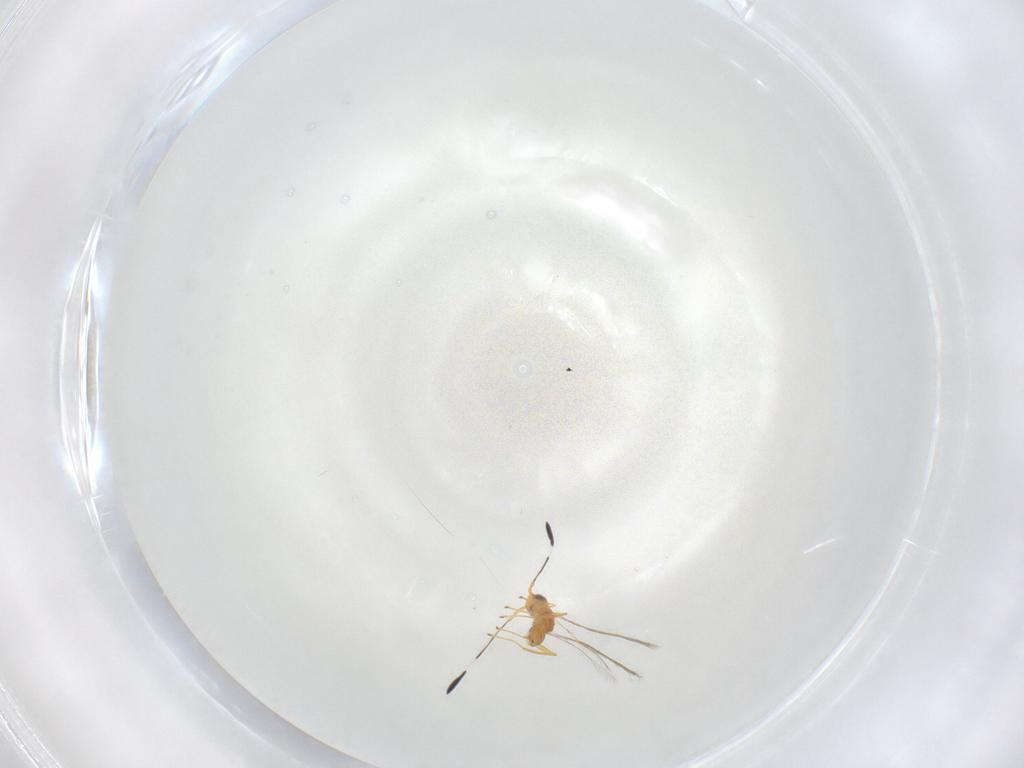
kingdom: Animalia
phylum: Arthropoda
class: Insecta
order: Hymenoptera
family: Mymaridae
